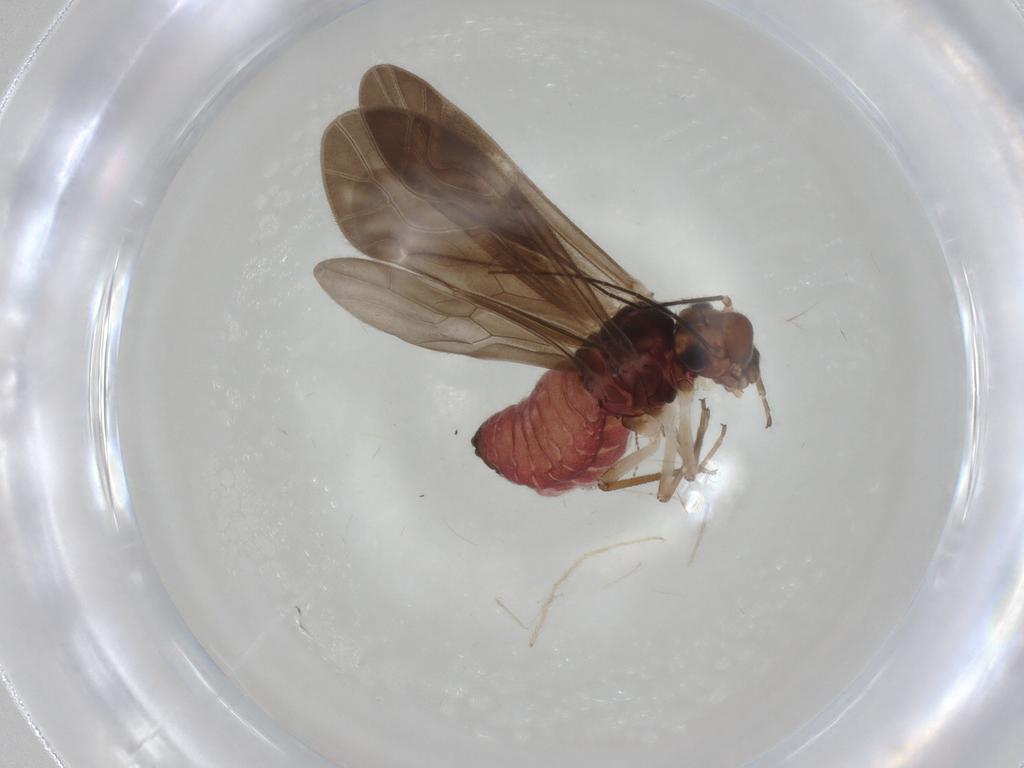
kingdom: Animalia
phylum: Arthropoda
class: Insecta
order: Psocodea
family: Caeciliusidae
